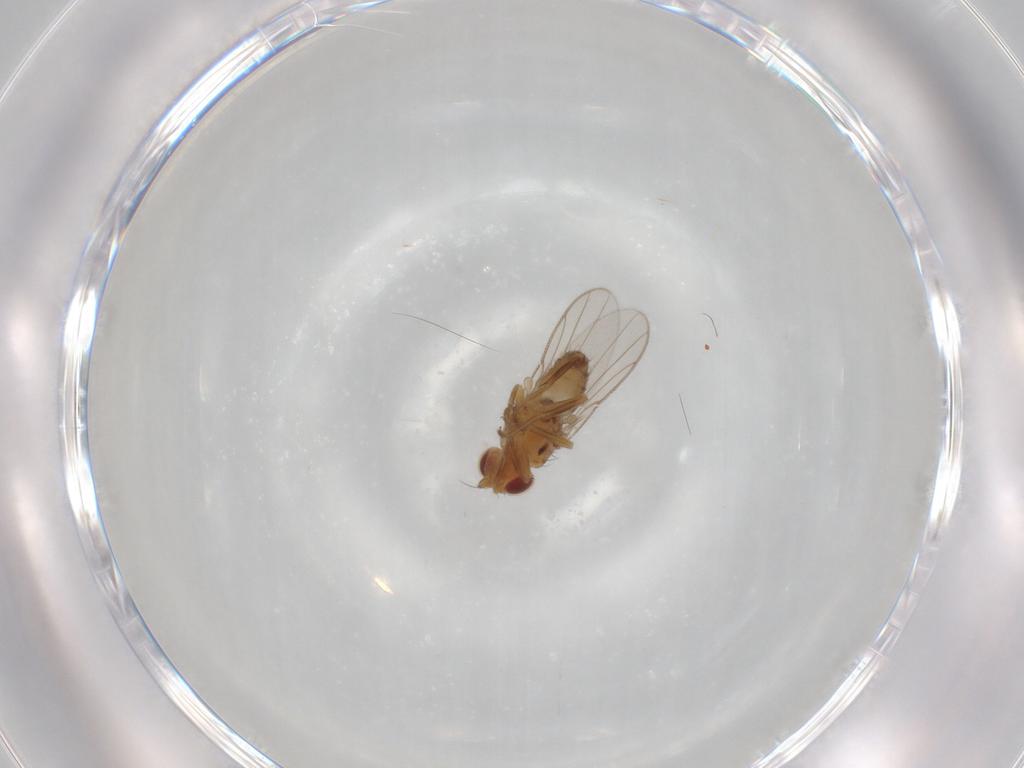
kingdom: Animalia
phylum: Arthropoda
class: Insecta
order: Diptera
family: Chloropidae
